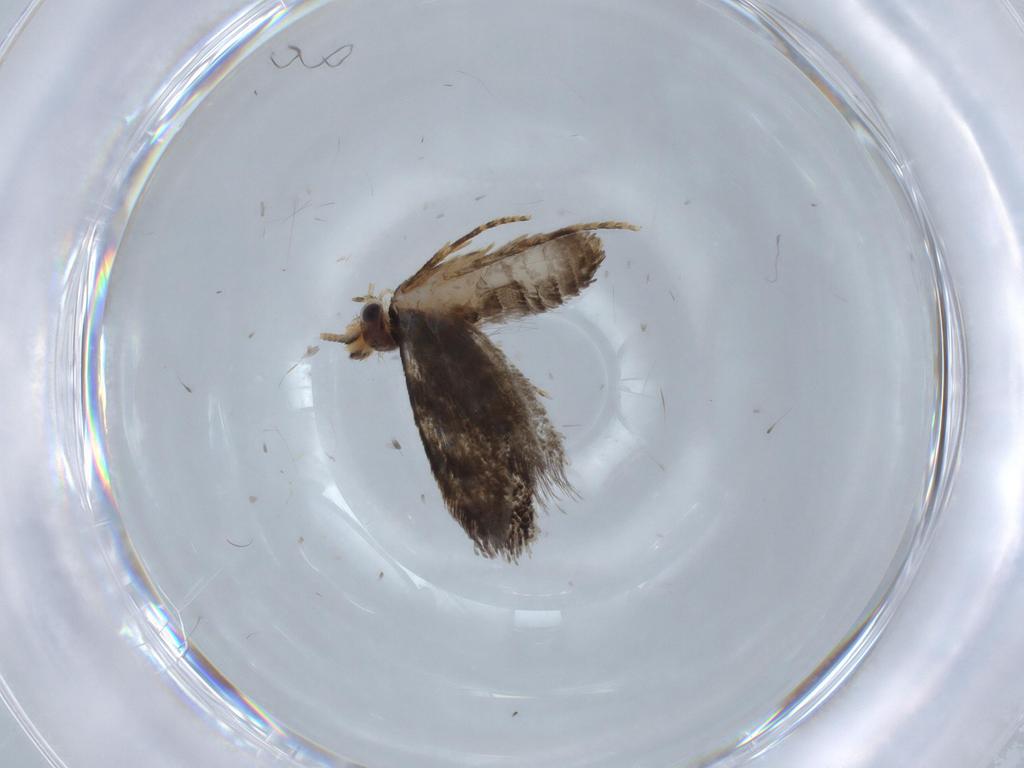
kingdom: Animalia
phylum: Arthropoda
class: Insecta
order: Lepidoptera
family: Tineidae
